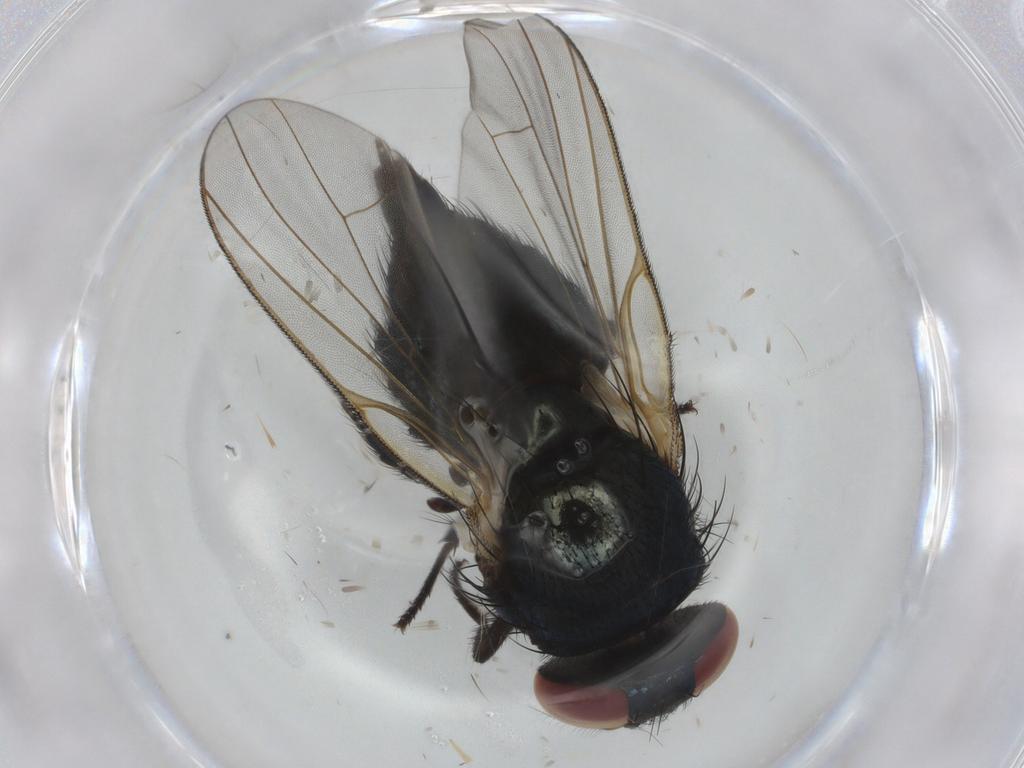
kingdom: Animalia
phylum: Arthropoda
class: Insecta
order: Diptera
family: Lonchaeidae
